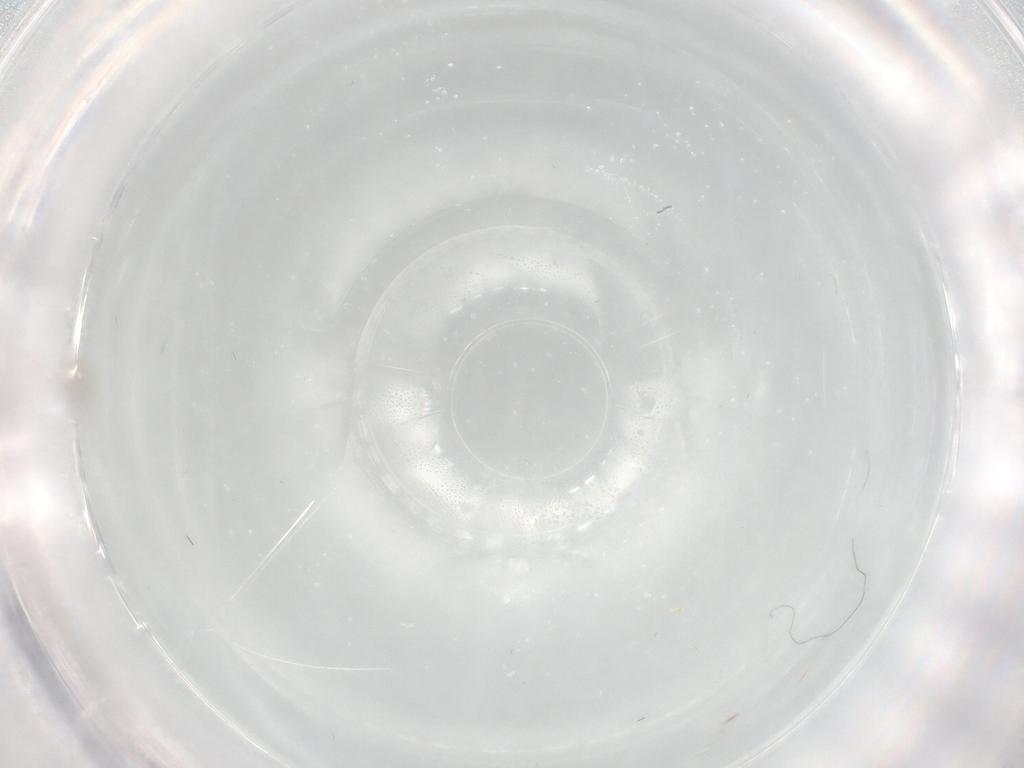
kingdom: Animalia
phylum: Arthropoda
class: Insecta
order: Diptera
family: Cecidomyiidae
